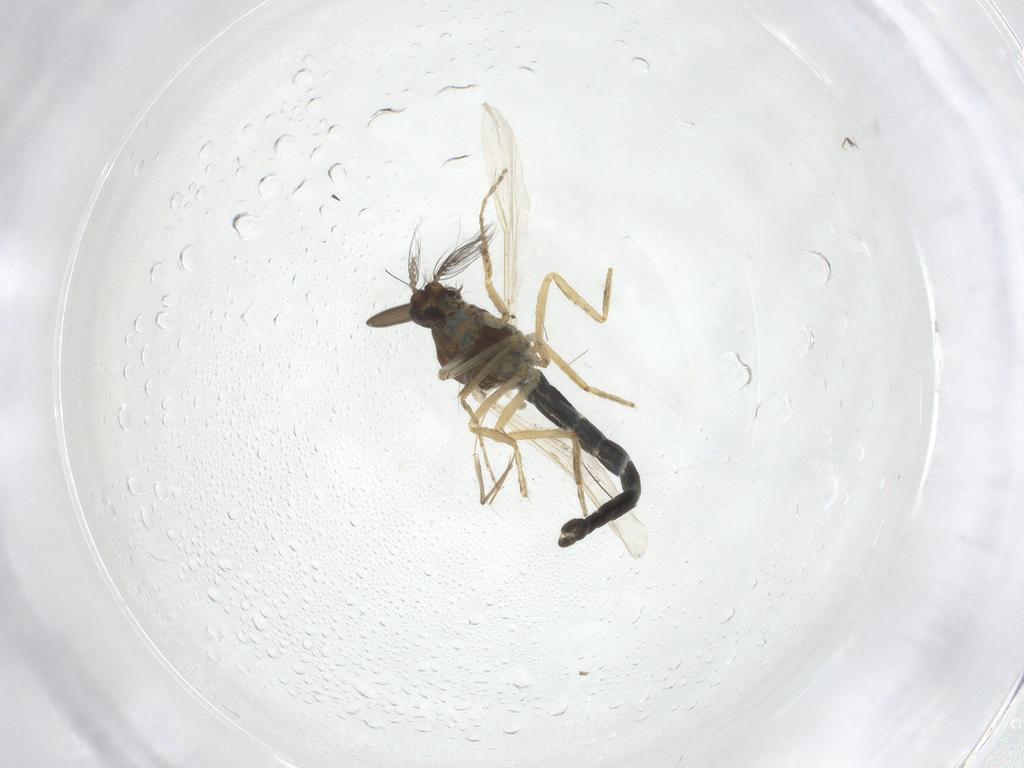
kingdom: Animalia
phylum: Arthropoda
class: Insecta
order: Diptera
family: Limoniidae
